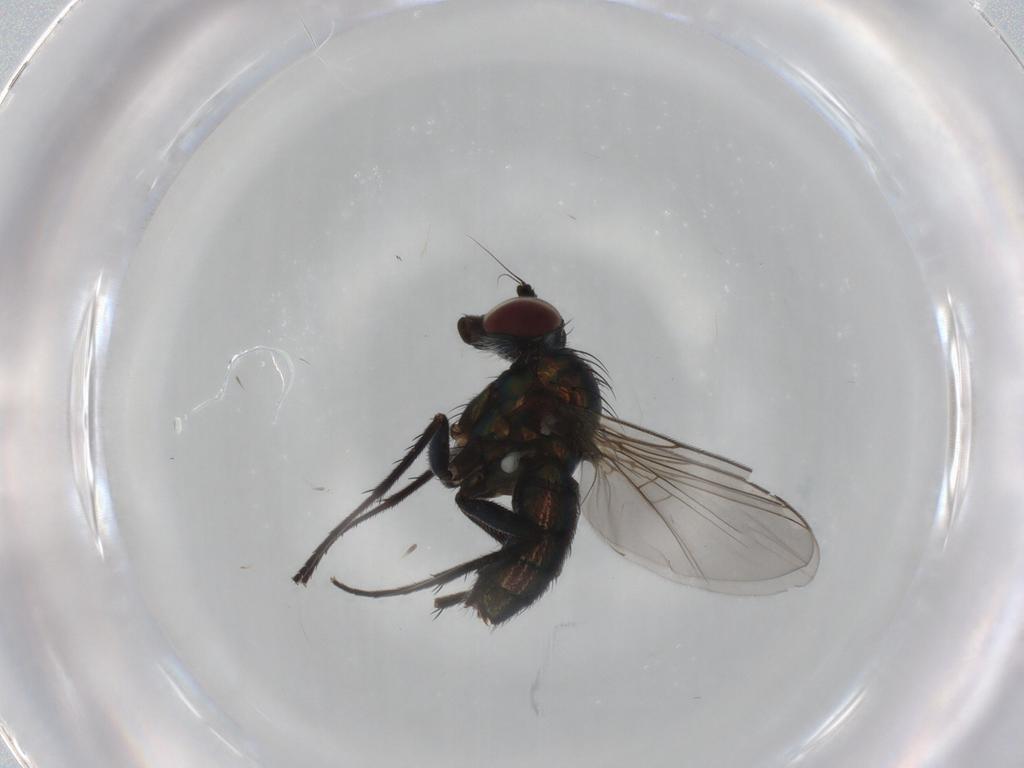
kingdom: Animalia
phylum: Arthropoda
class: Insecta
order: Diptera
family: Dolichopodidae
